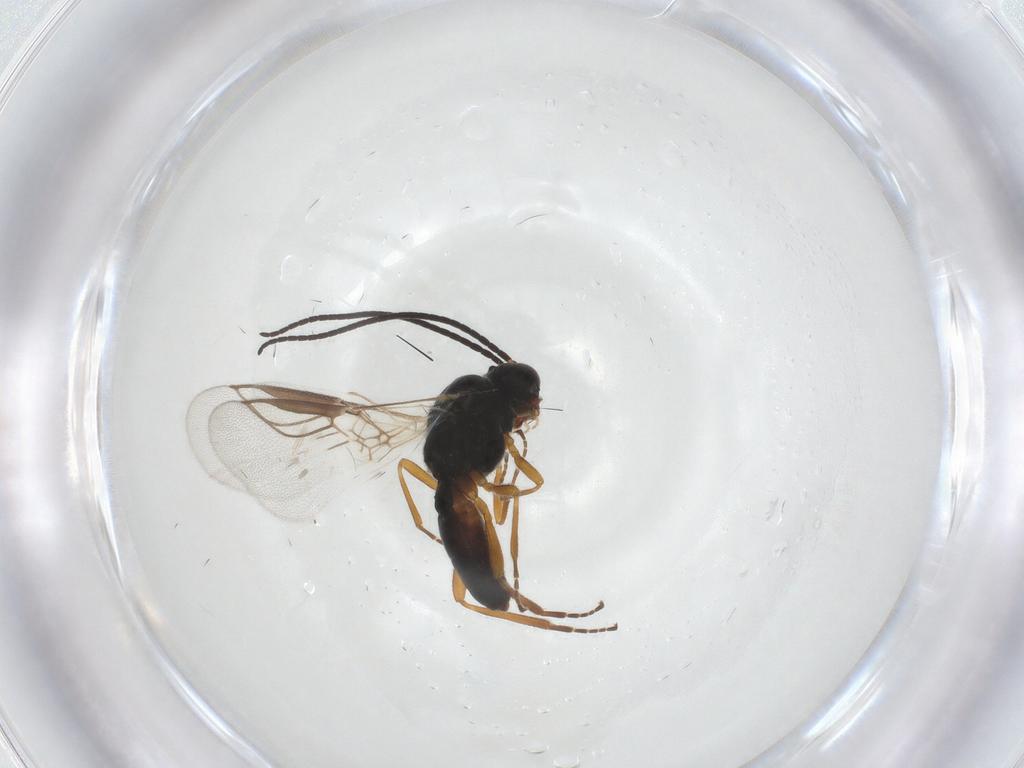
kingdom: Animalia
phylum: Arthropoda
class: Insecta
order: Hymenoptera
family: Braconidae
